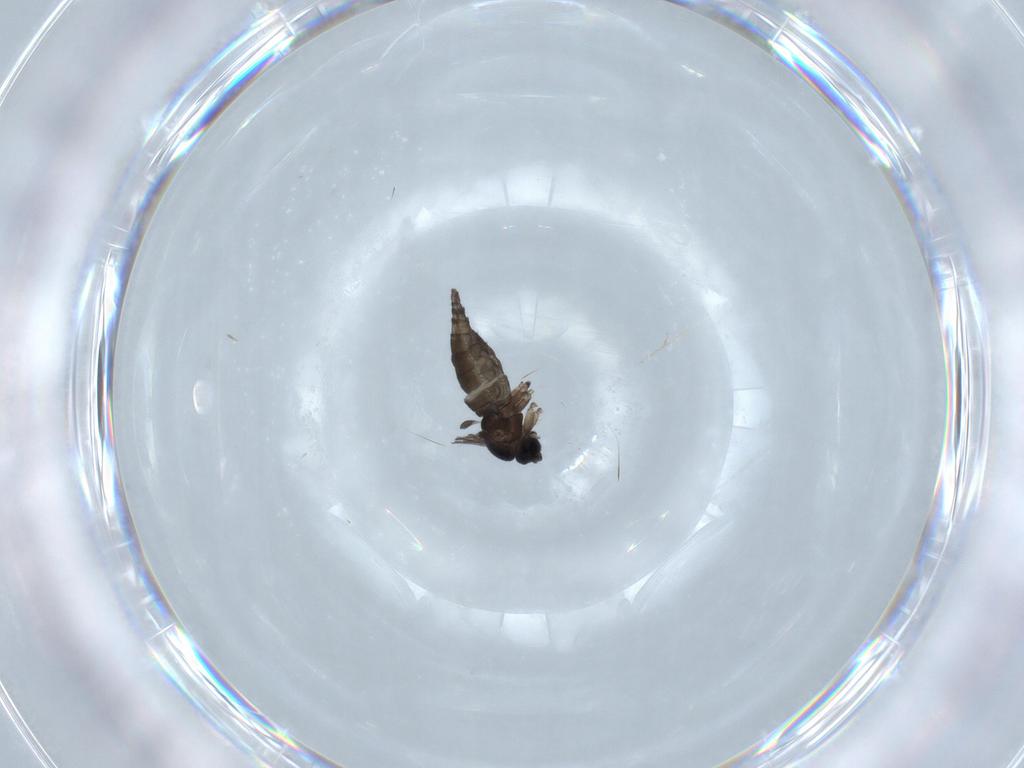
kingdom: Animalia
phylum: Arthropoda
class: Insecta
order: Diptera
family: Sciaridae
